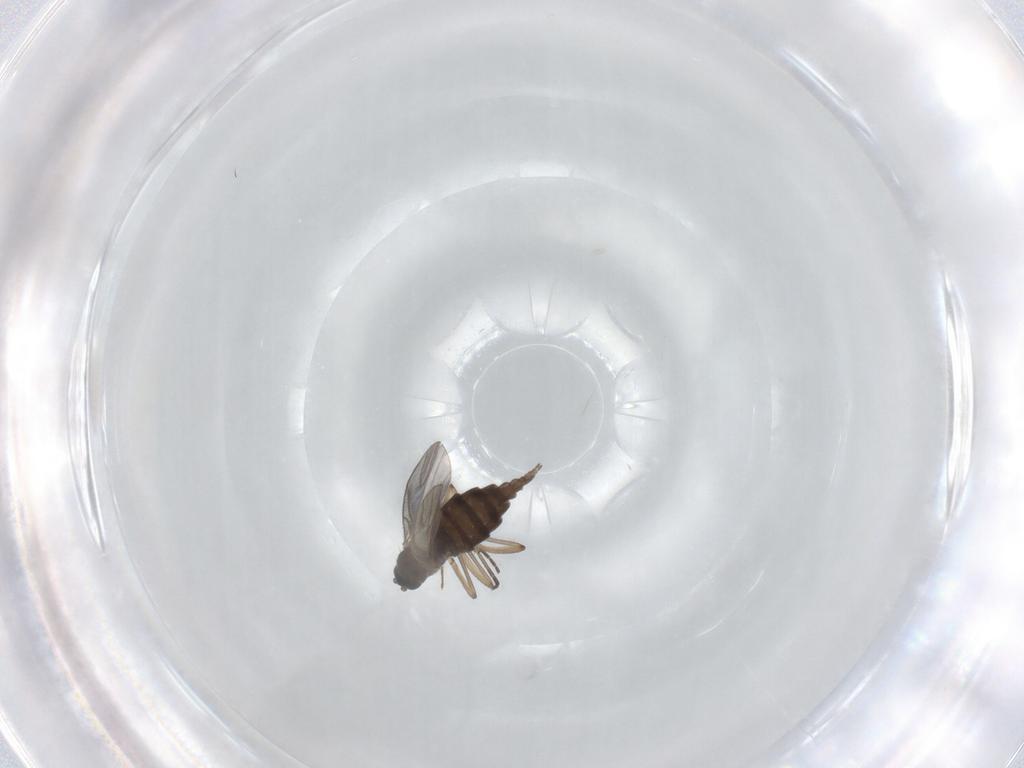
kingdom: Animalia
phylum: Arthropoda
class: Insecta
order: Diptera
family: Sciaridae
